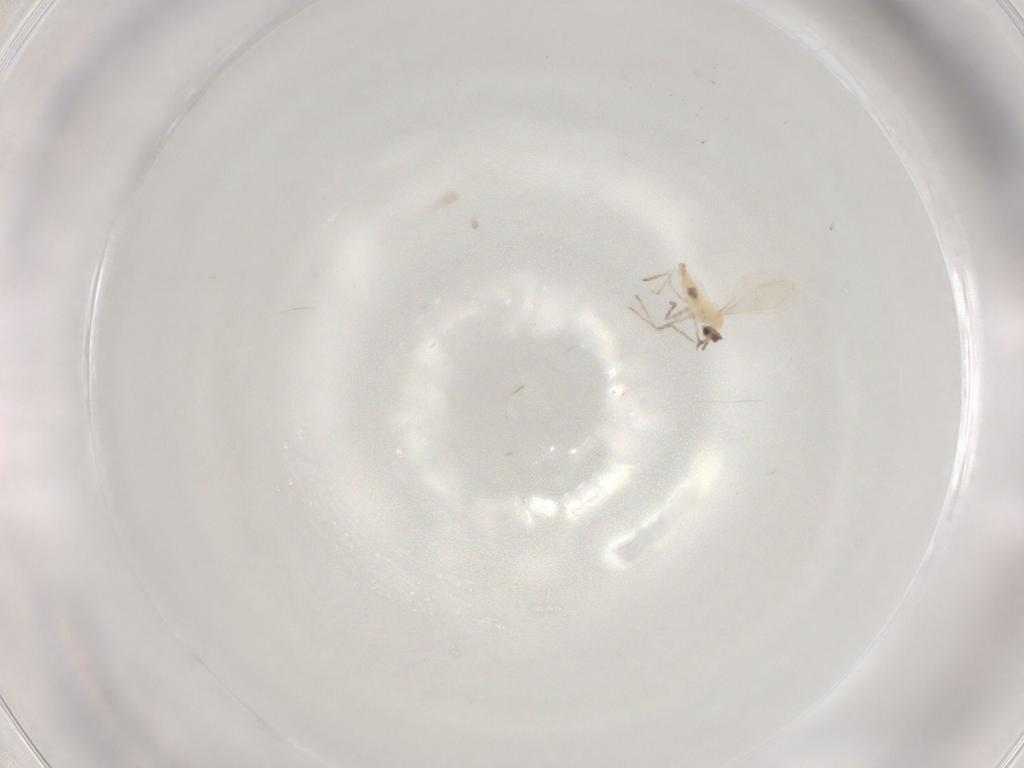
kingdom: Animalia
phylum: Arthropoda
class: Insecta
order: Diptera
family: Phoridae
